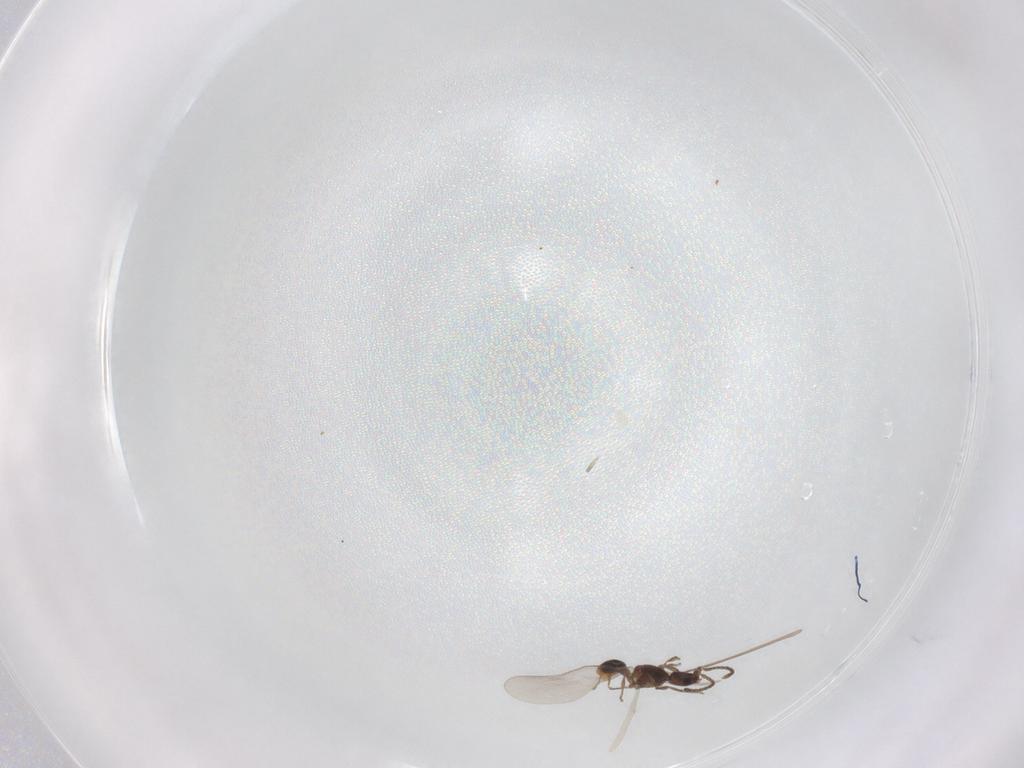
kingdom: Animalia
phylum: Arthropoda
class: Insecta
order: Hymenoptera
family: Formicidae
